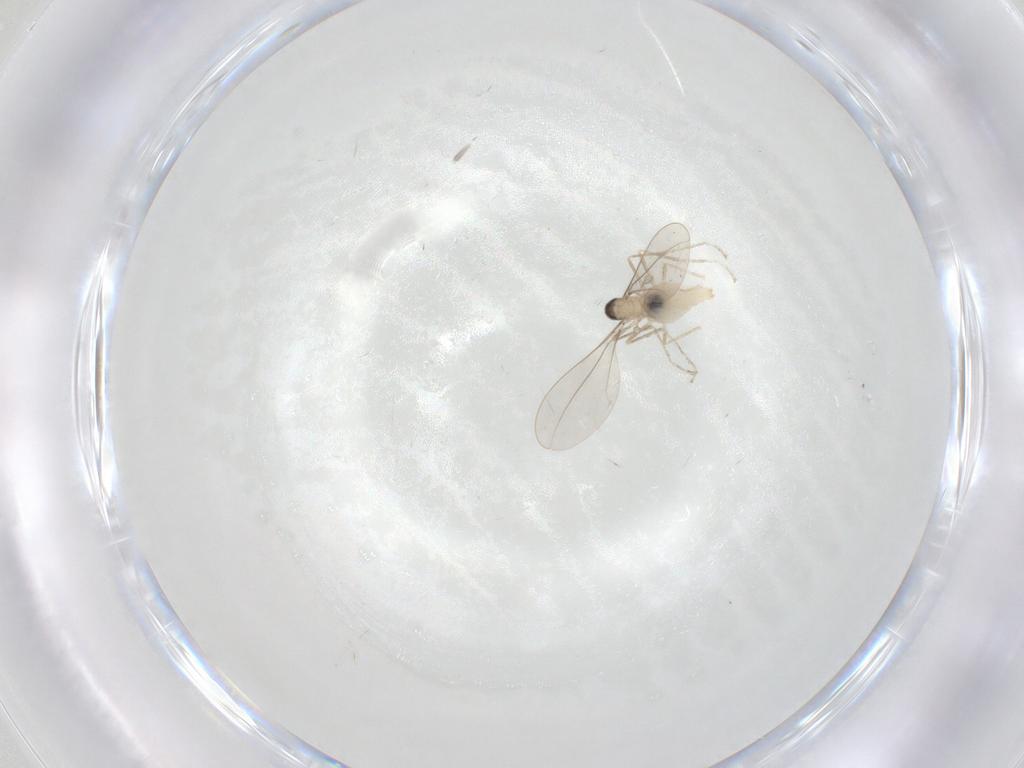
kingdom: Animalia
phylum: Arthropoda
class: Insecta
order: Diptera
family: Cecidomyiidae
